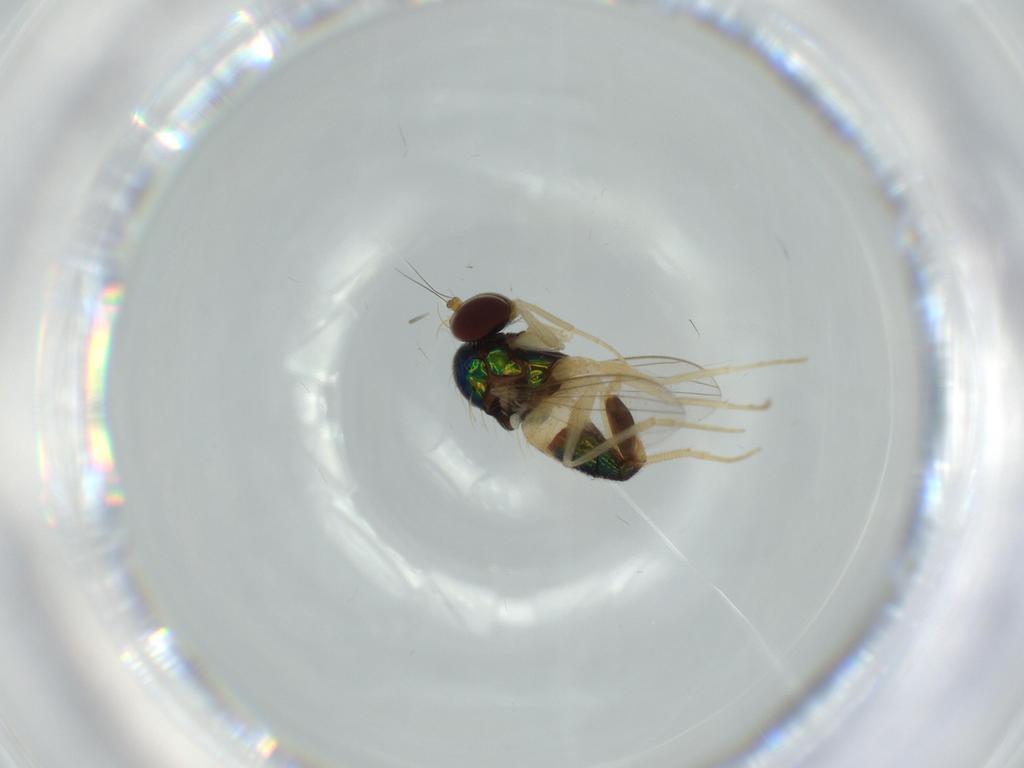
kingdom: Animalia
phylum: Arthropoda
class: Insecta
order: Diptera
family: Dolichopodidae
